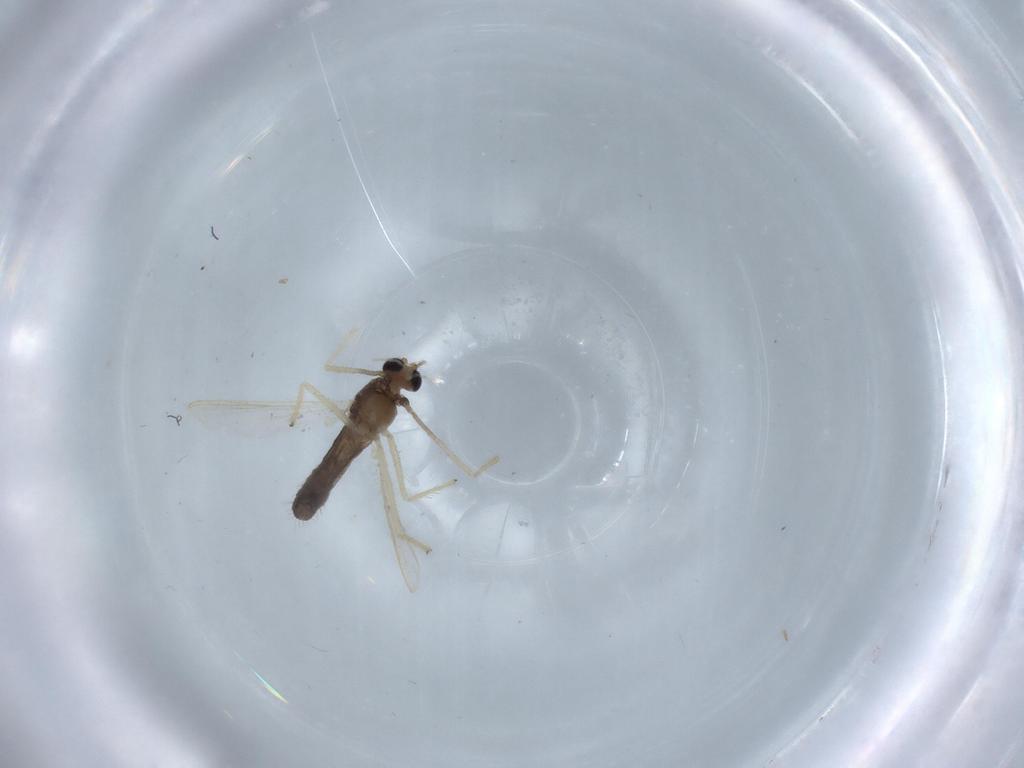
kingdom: Animalia
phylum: Arthropoda
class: Insecta
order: Diptera
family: Chironomidae
